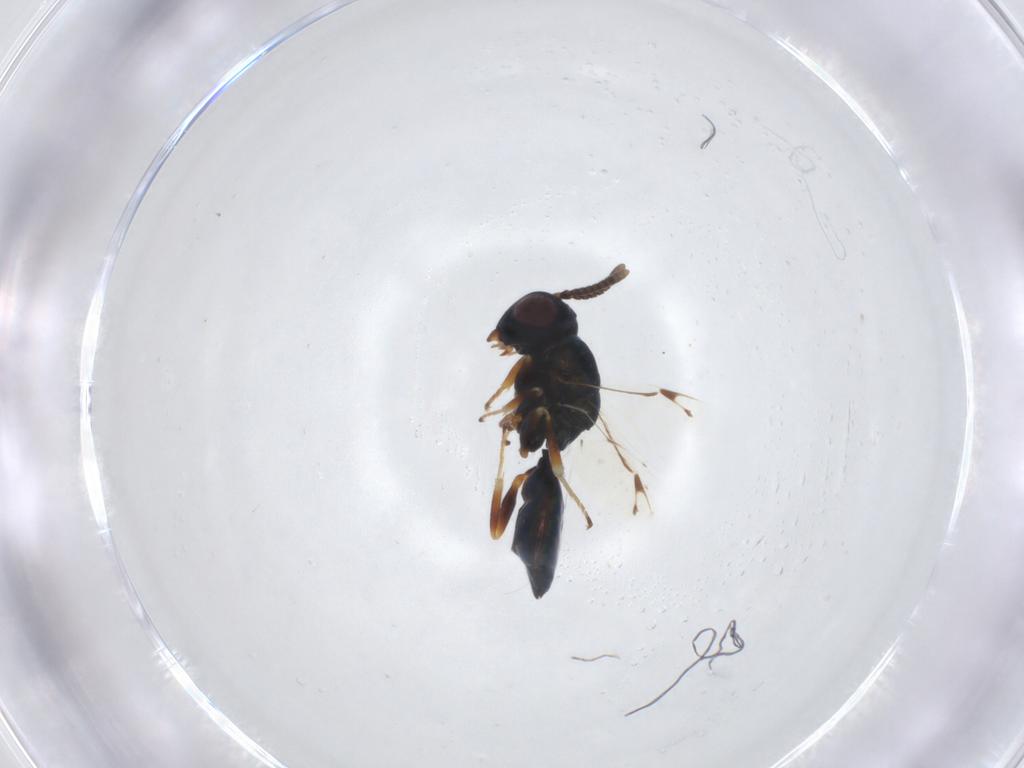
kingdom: Animalia
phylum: Arthropoda
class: Insecta
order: Hymenoptera
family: Pteromalidae
